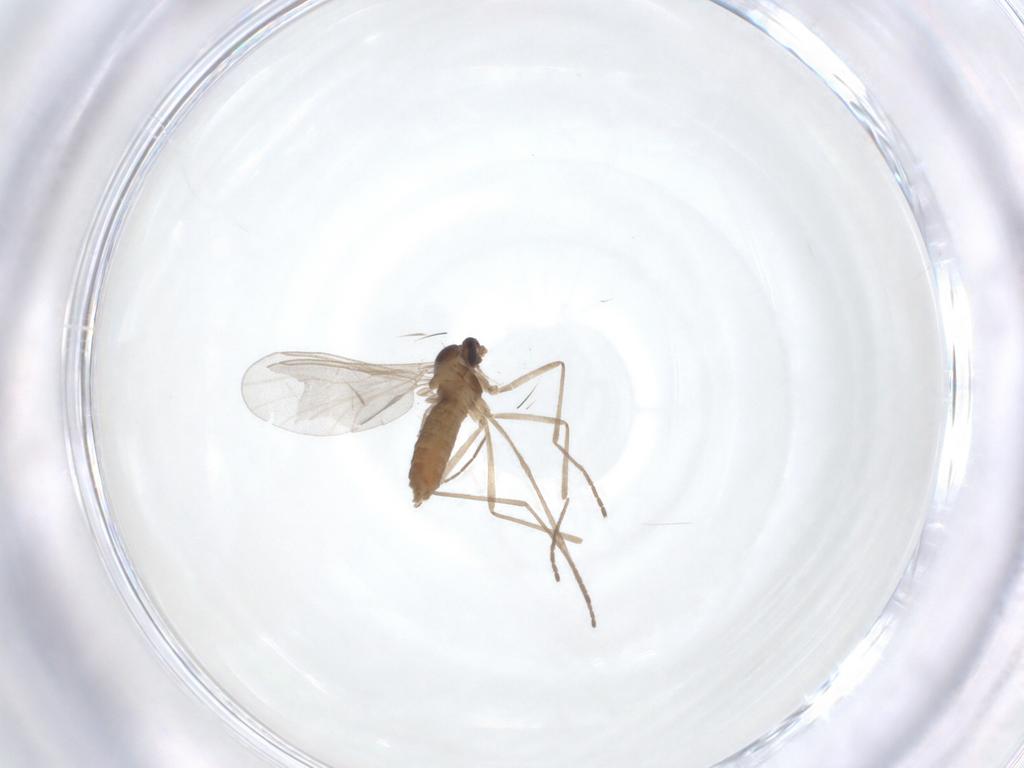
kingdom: Animalia
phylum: Arthropoda
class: Insecta
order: Diptera
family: Cecidomyiidae
